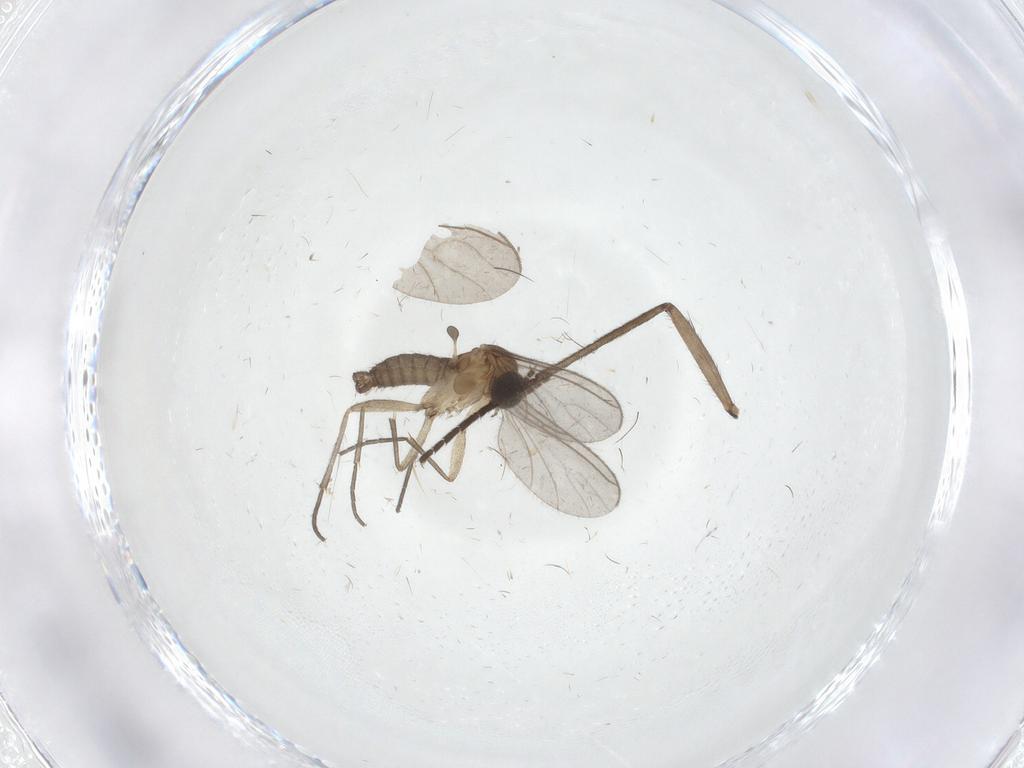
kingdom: Animalia
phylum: Arthropoda
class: Insecta
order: Diptera
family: Sciaridae
